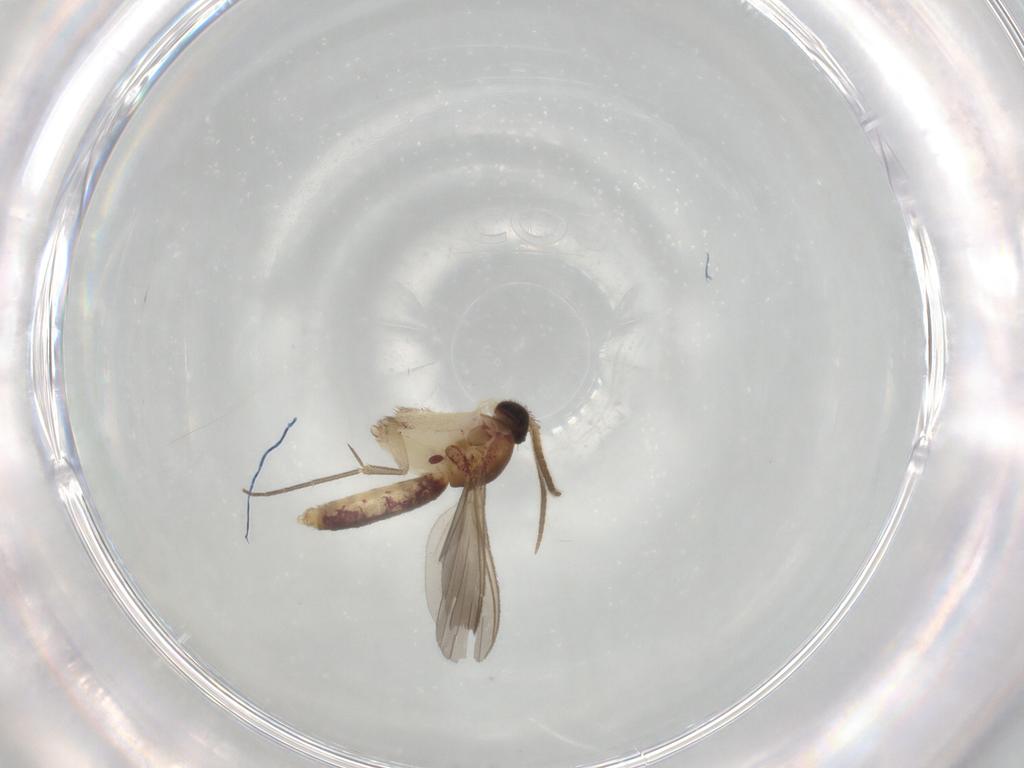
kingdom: Animalia
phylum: Arthropoda
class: Insecta
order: Diptera
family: Mycetophilidae
